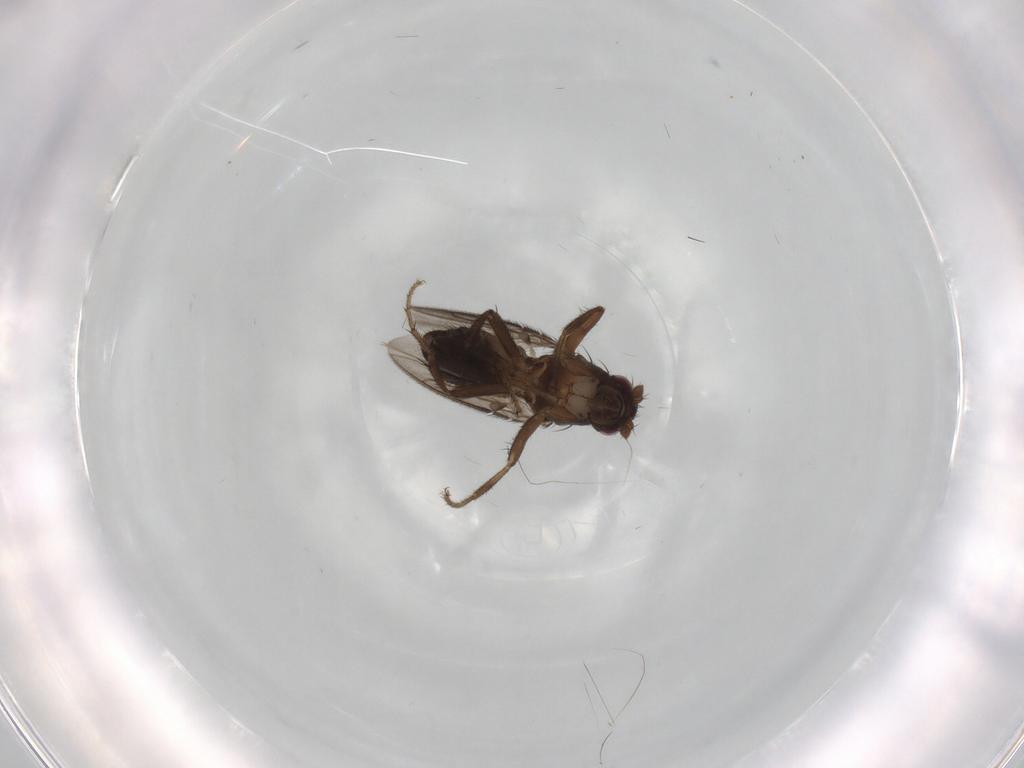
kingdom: Animalia
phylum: Arthropoda
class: Insecta
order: Diptera
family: Sphaeroceridae
